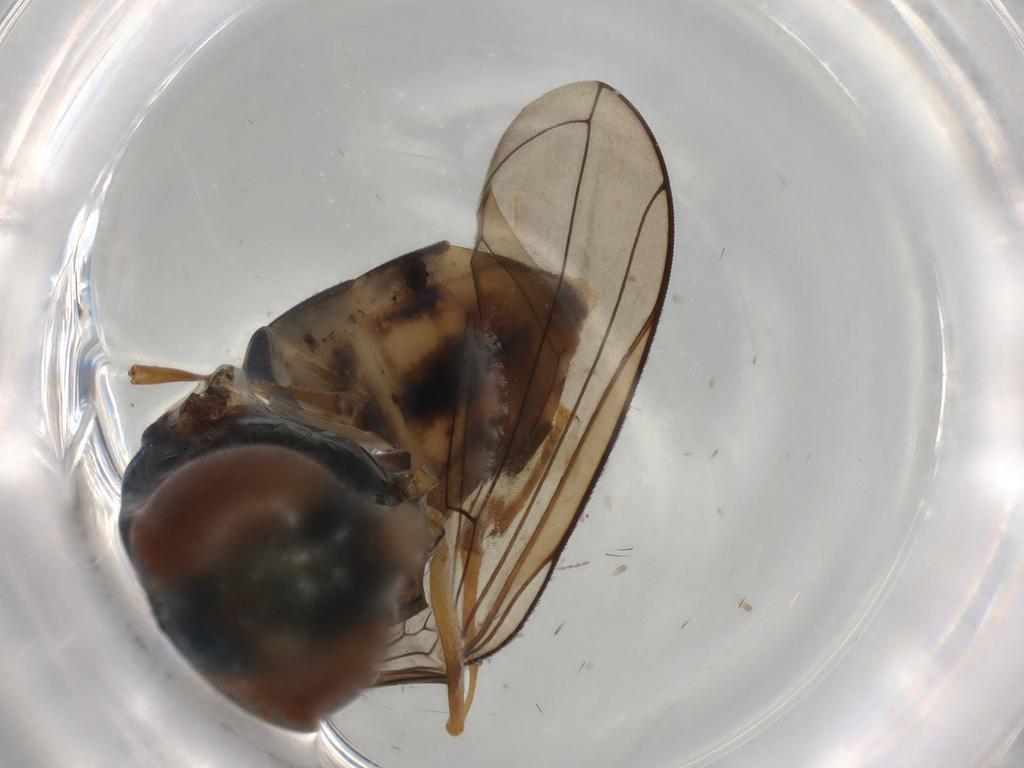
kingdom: Animalia
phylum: Arthropoda
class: Insecta
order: Diptera
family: Syrphidae
